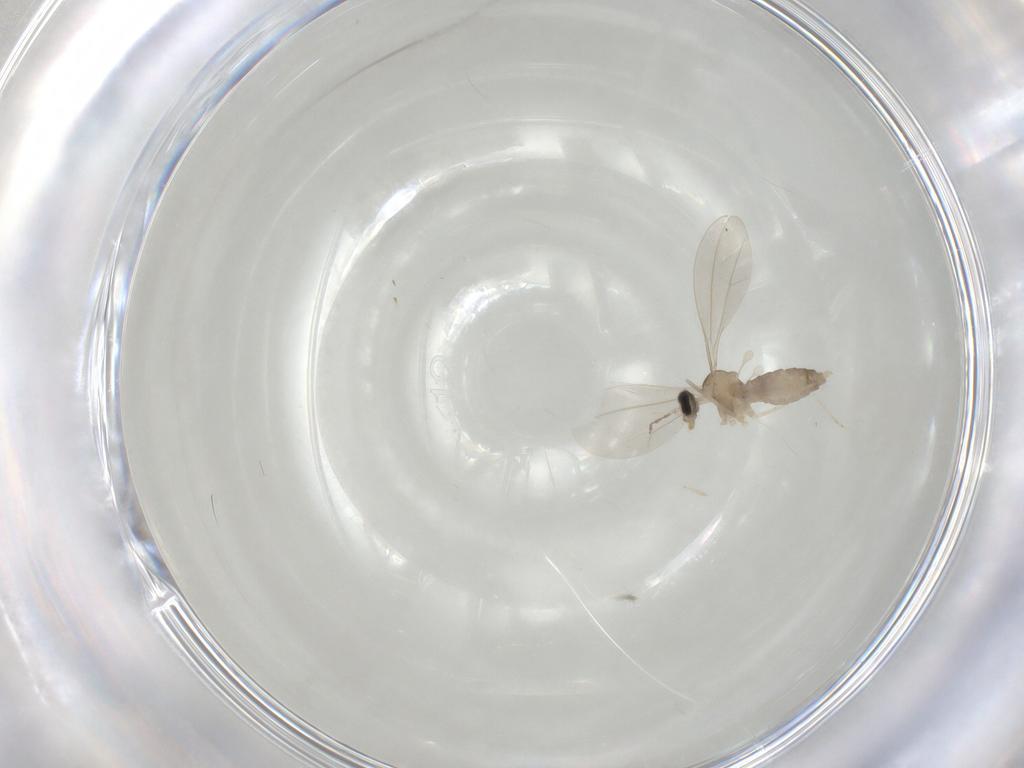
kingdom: Animalia
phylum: Arthropoda
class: Insecta
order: Diptera
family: Cecidomyiidae
